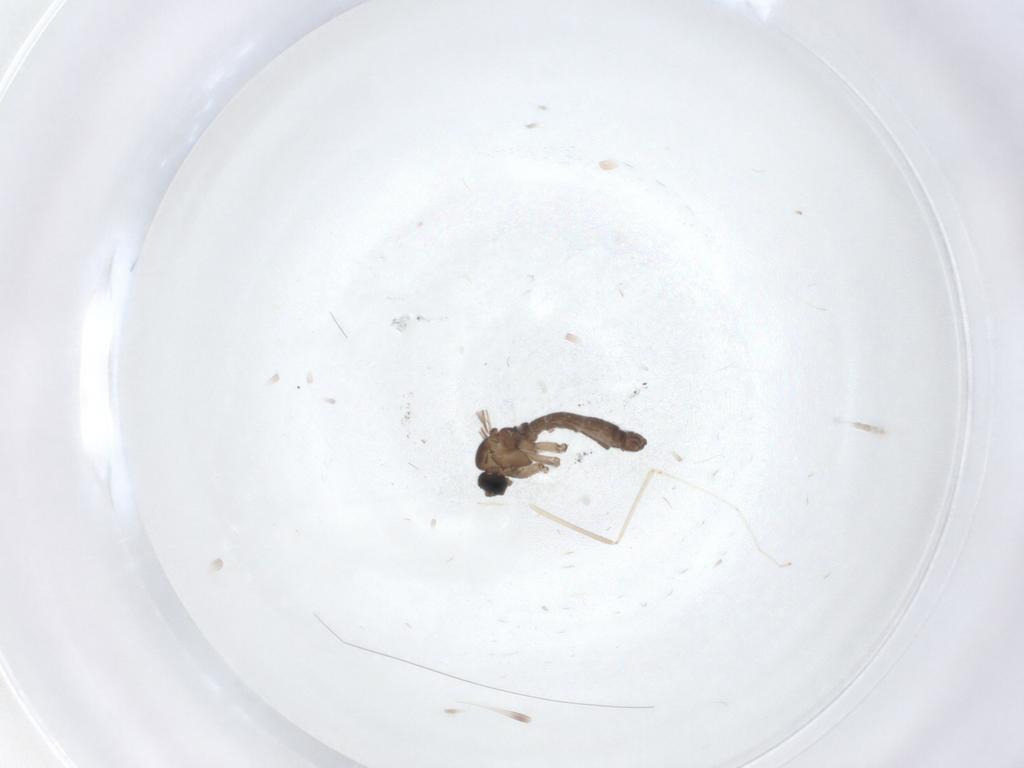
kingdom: Animalia
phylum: Arthropoda
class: Insecta
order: Diptera
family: Sciaridae
